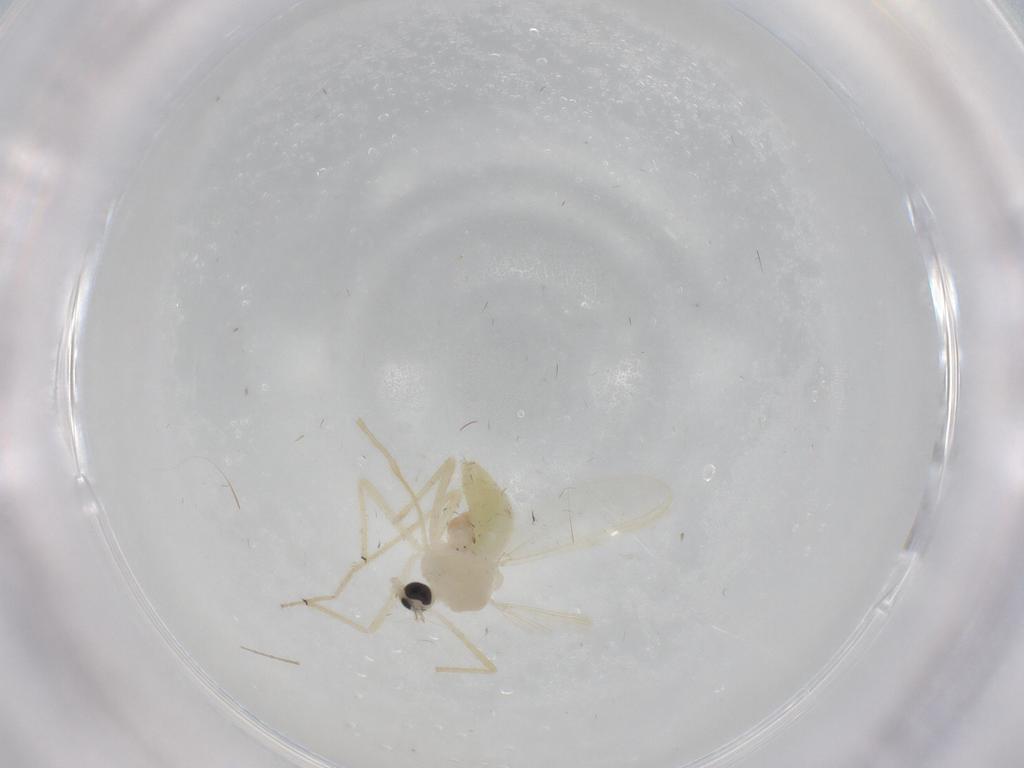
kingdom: Animalia
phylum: Arthropoda
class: Insecta
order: Diptera
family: Chironomidae
